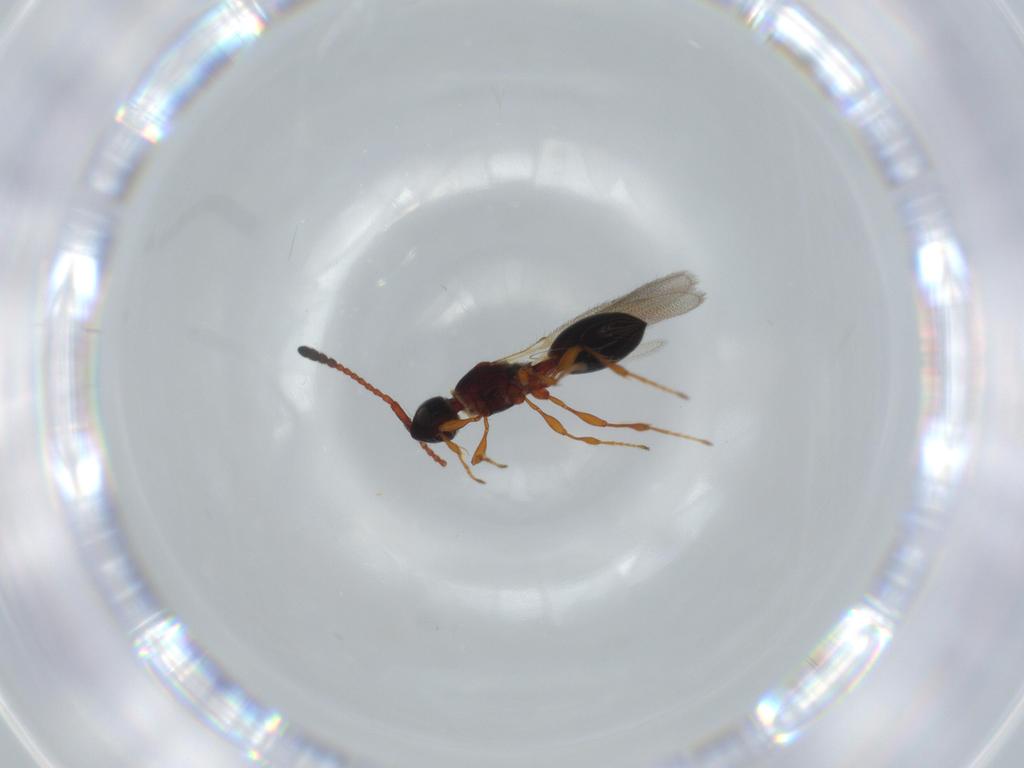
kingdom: Animalia
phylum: Arthropoda
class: Insecta
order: Hymenoptera
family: Diapriidae
